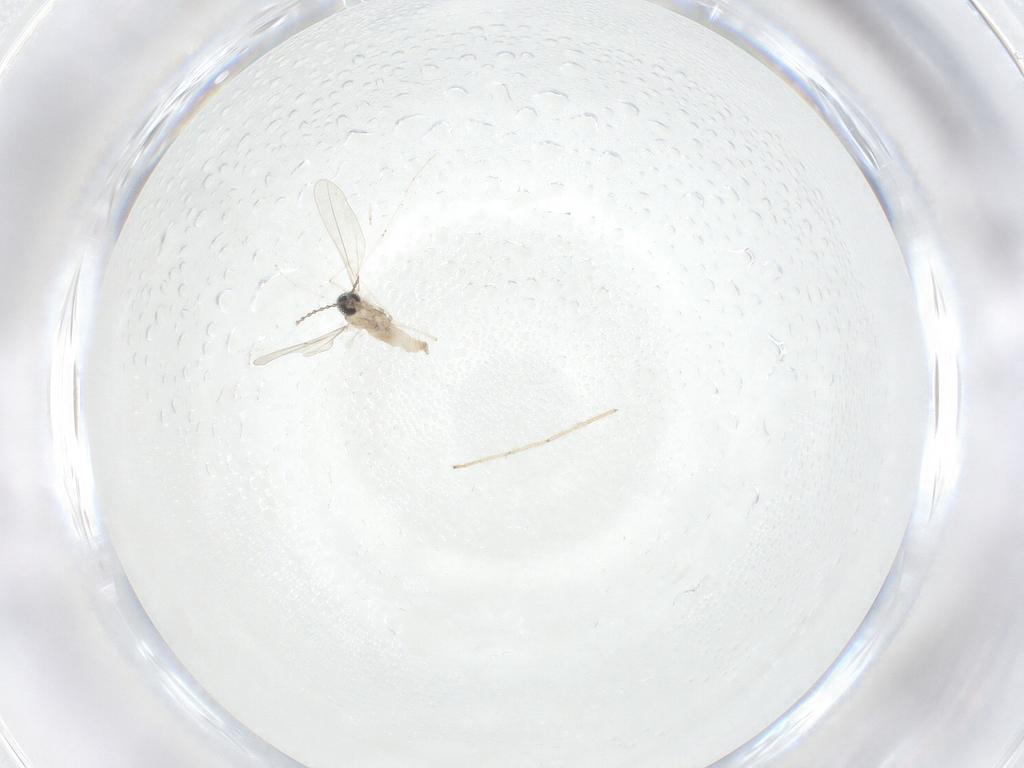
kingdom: Animalia
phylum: Arthropoda
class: Insecta
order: Diptera
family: Chironomidae
